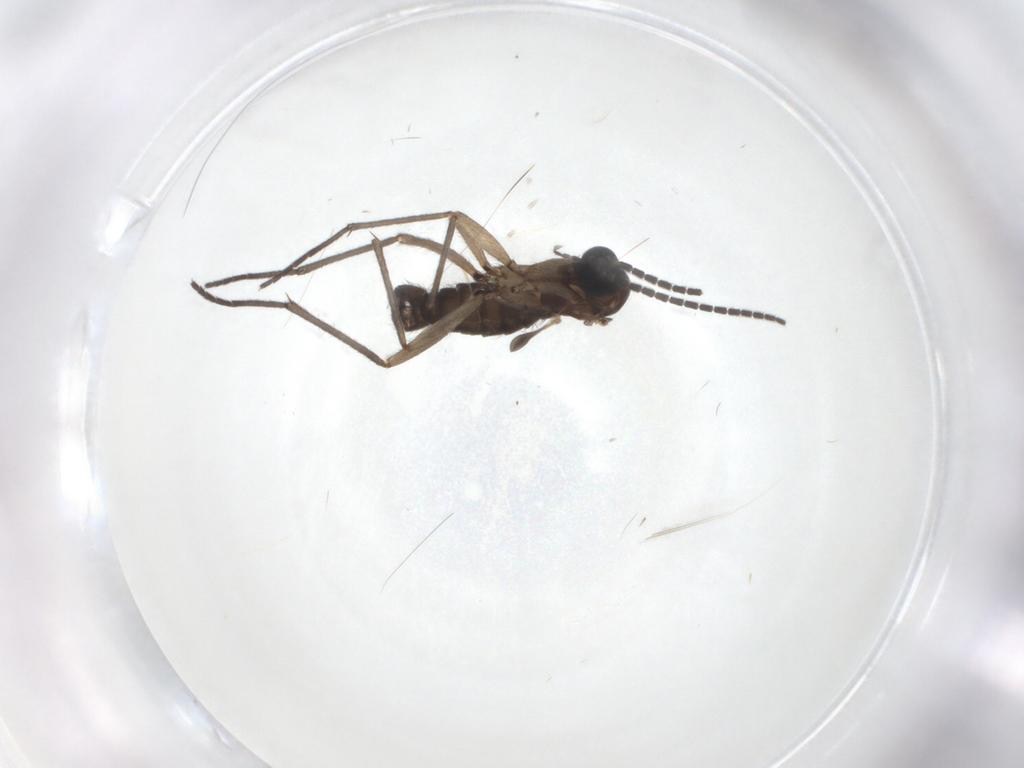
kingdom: Animalia
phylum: Arthropoda
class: Insecta
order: Diptera
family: Sciaridae
